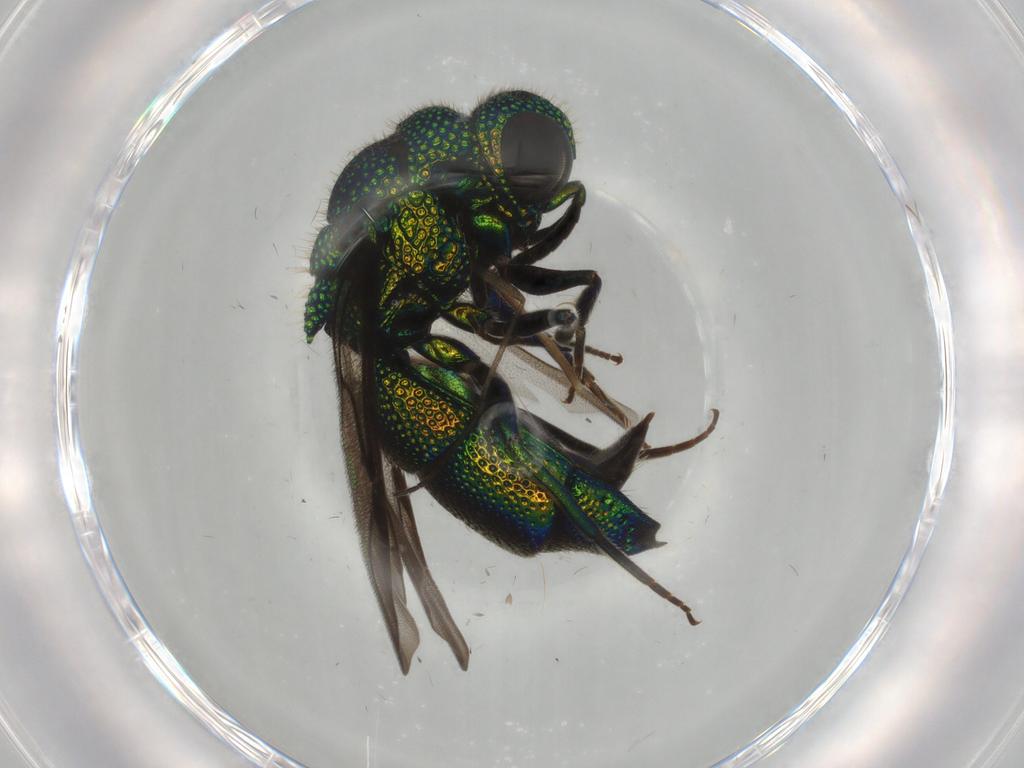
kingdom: Animalia
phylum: Arthropoda
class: Insecta
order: Hymenoptera
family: Chrysididae
